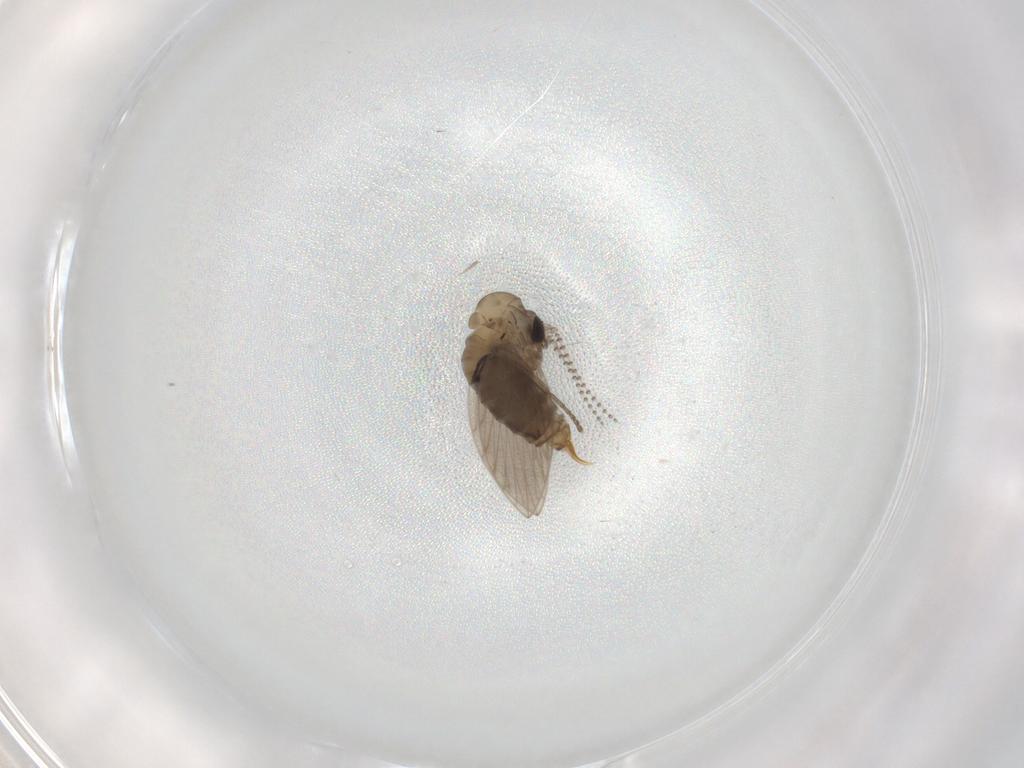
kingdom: Animalia
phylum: Arthropoda
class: Insecta
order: Diptera
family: Psychodidae
